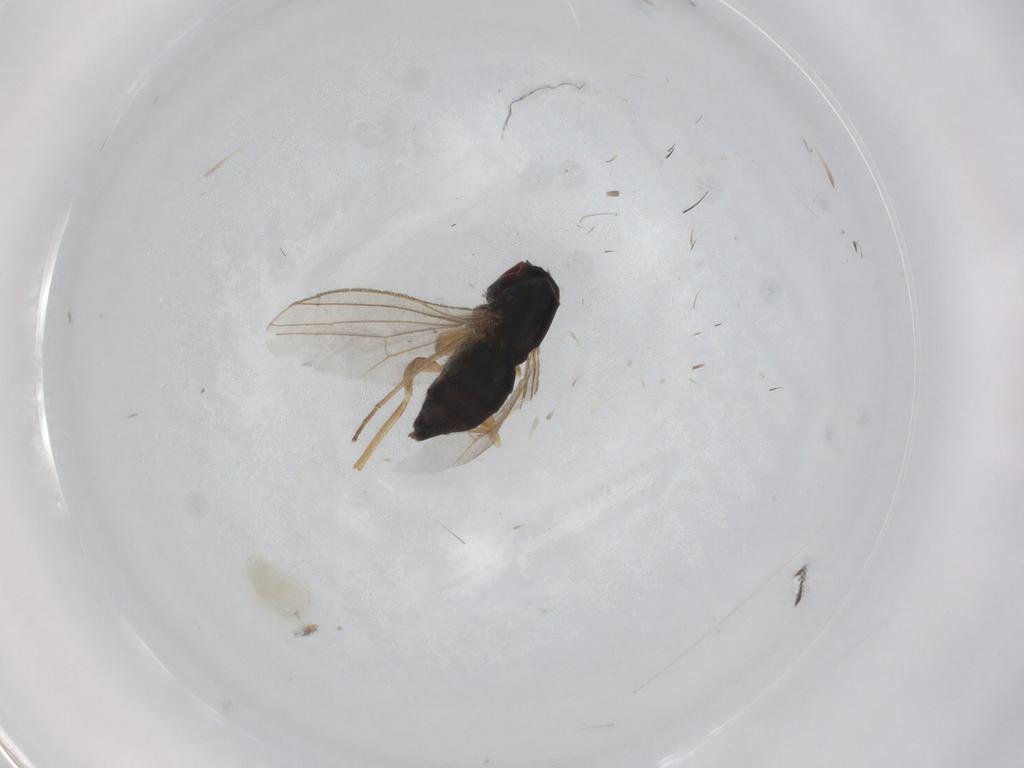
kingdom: Animalia
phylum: Arthropoda
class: Insecta
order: Diptera
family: Dolichopodidae
